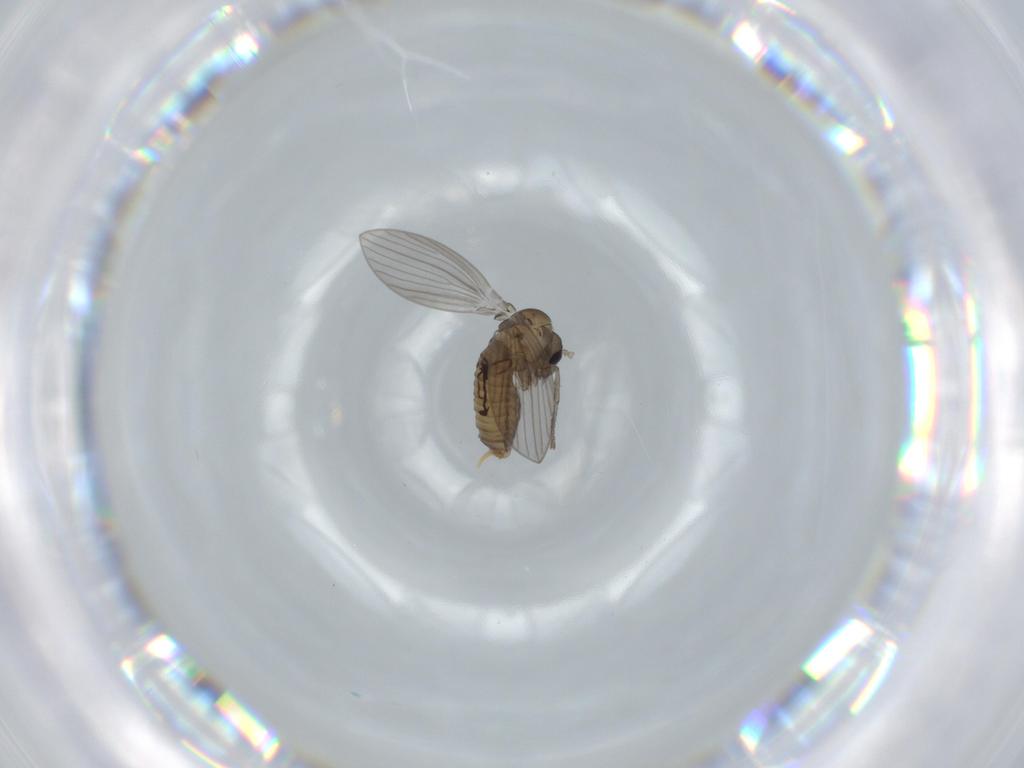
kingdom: Animalia
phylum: Arthropoda
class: Insecta
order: Diptera
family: Psychodidae
